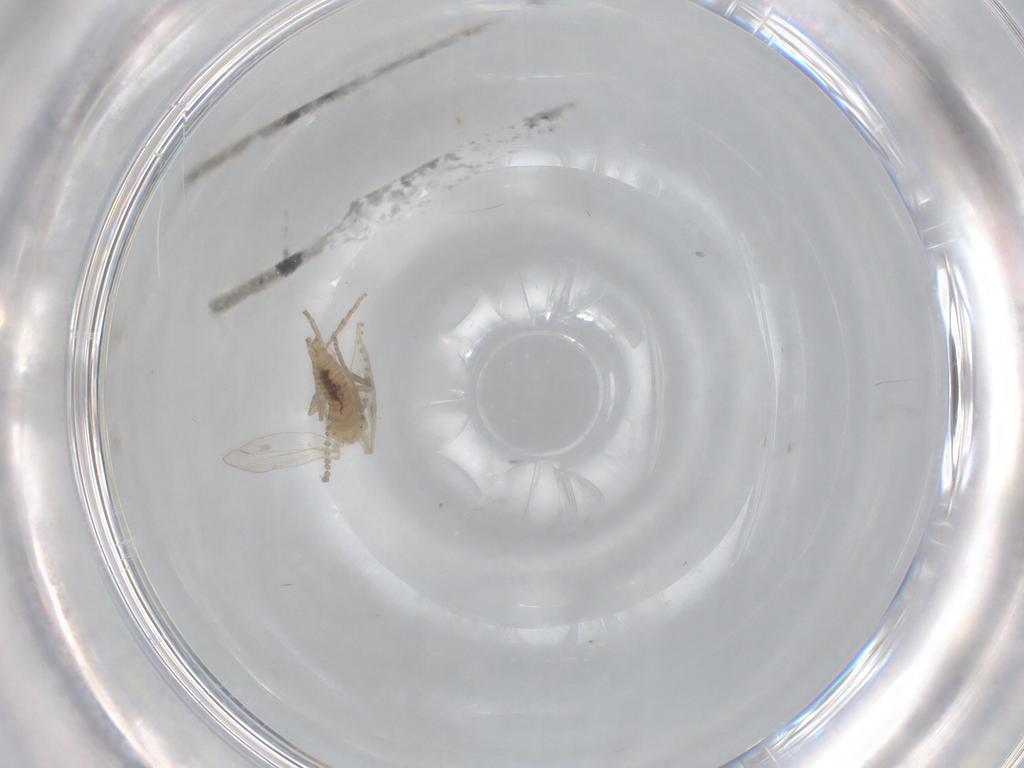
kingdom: Animalia
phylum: Arthropoda
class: Insecta
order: Diptera
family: Psychodidae
